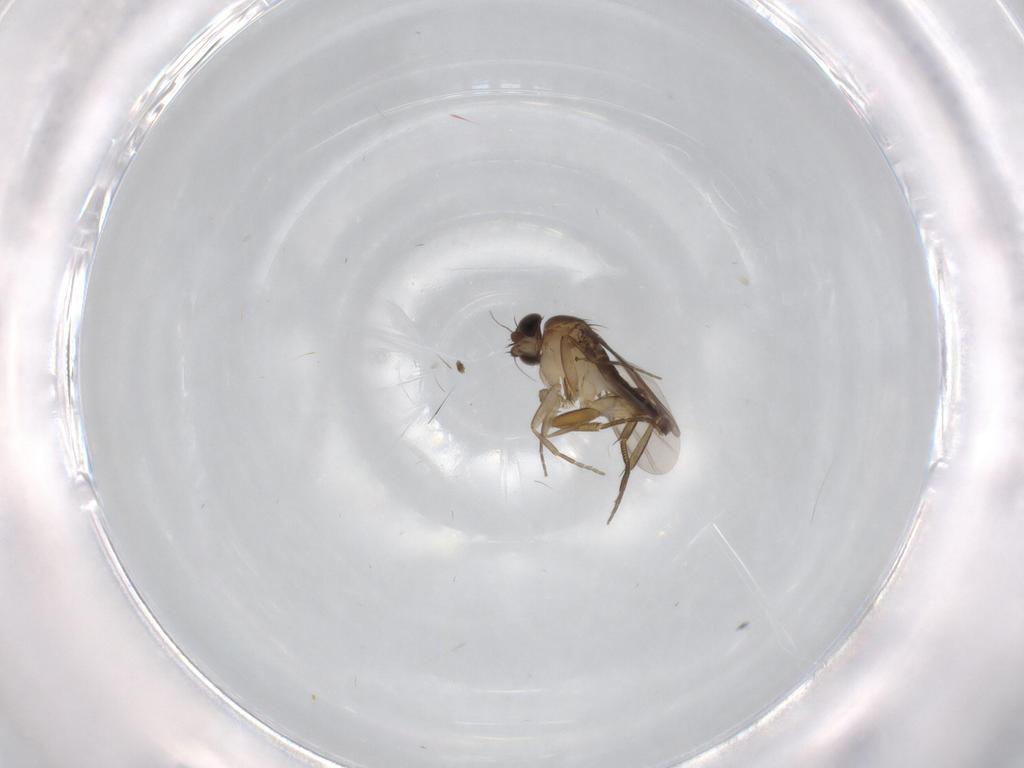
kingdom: Animalia
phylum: Arthropoda
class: Insecta
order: Diptera
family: Phoridae
